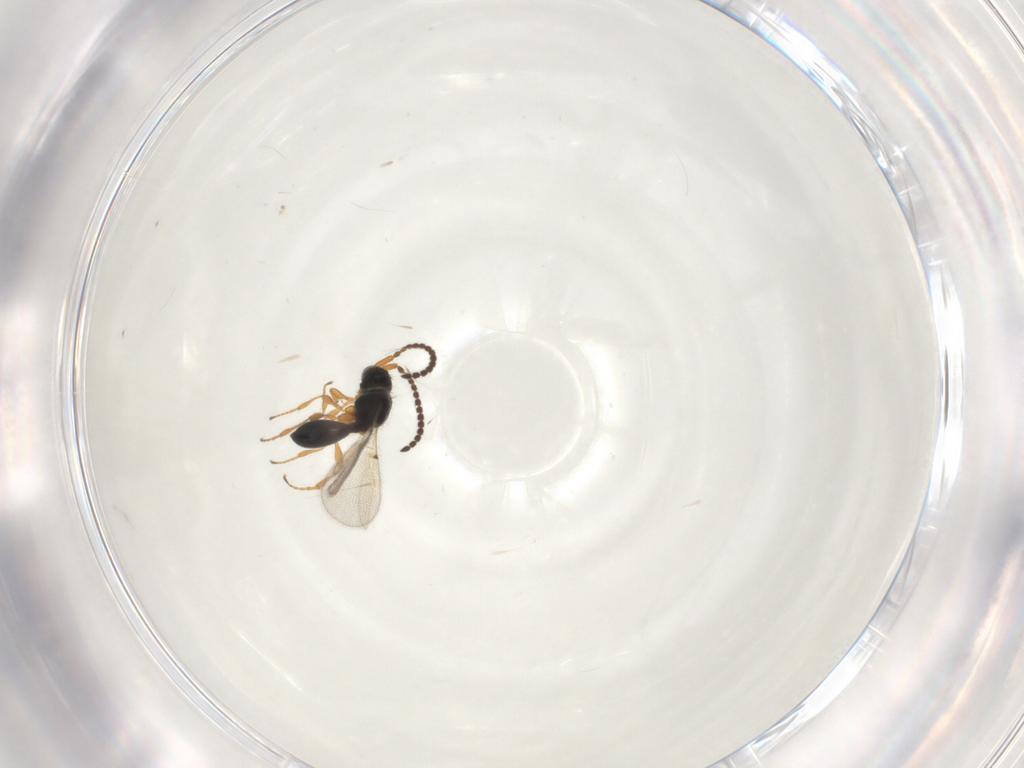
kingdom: Animalia
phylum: Arthropoda
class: Insecta
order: Hymenoptera
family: Diapriidae
